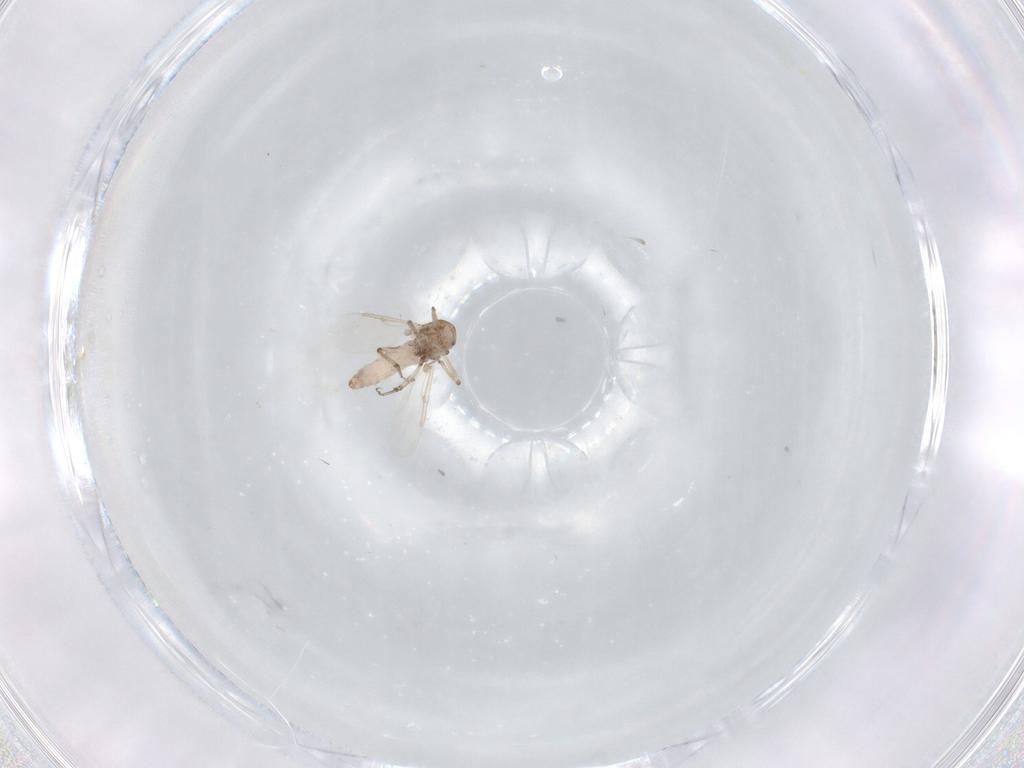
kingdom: Animalia
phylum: Arthropoda
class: Insecta
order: Diptera
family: Ceratopogonidae
